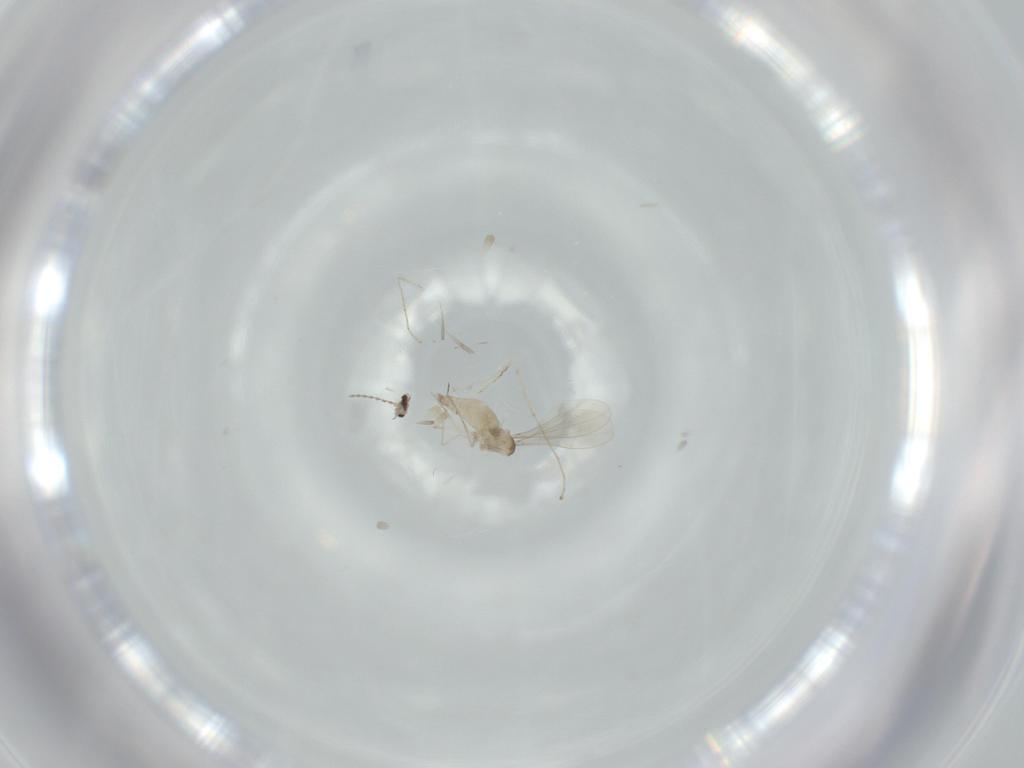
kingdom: Animalia
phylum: Arthropoda
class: Insecta
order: Diptera
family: Cecidomyiidae
